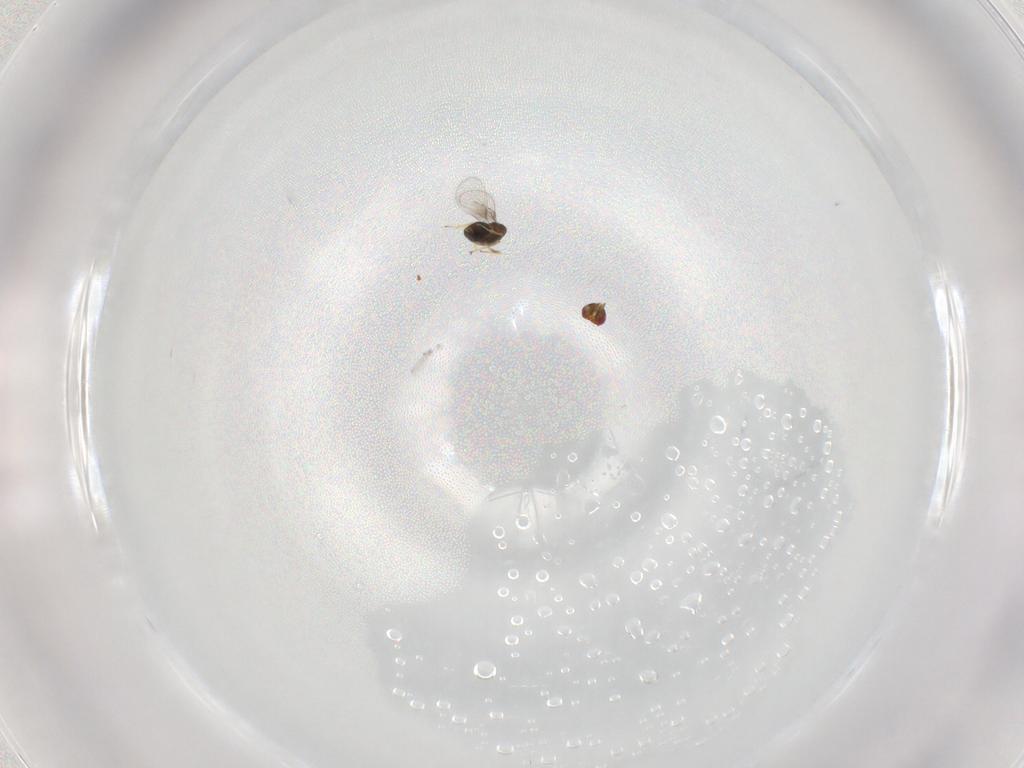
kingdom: Animalia
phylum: Arthropoda
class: Insecta
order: Hymenoptera
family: Trichogrammatidae
